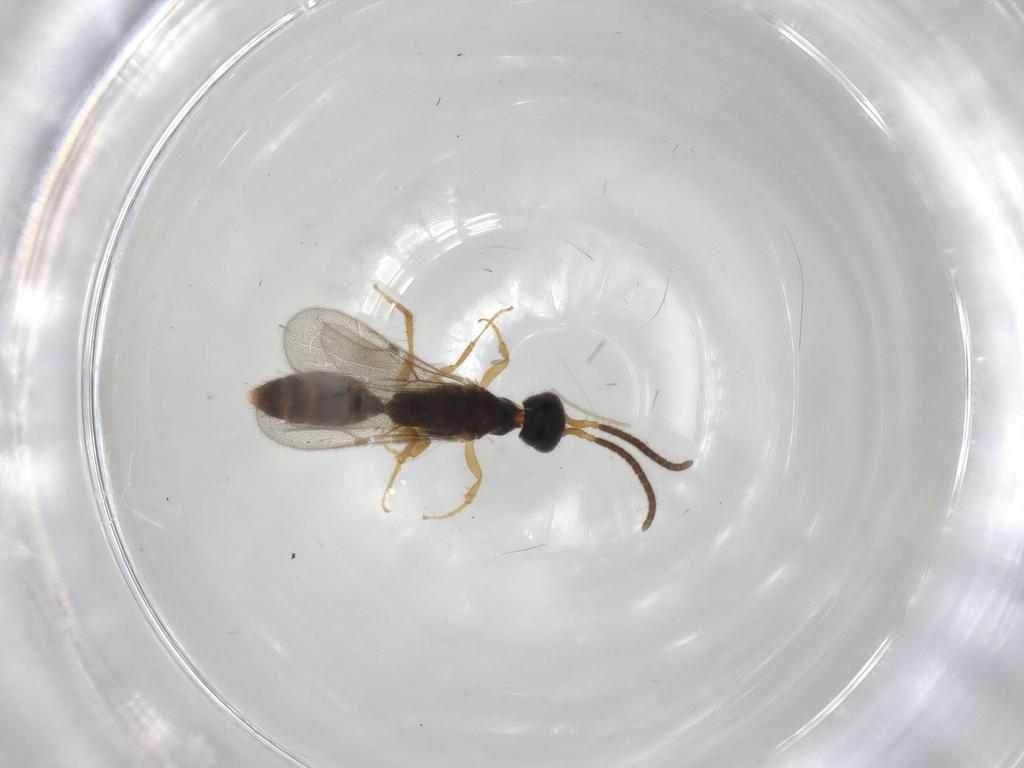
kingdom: Animalia
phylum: Arthropoda
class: Insecta
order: Hymenoptera
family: Bethylidae
